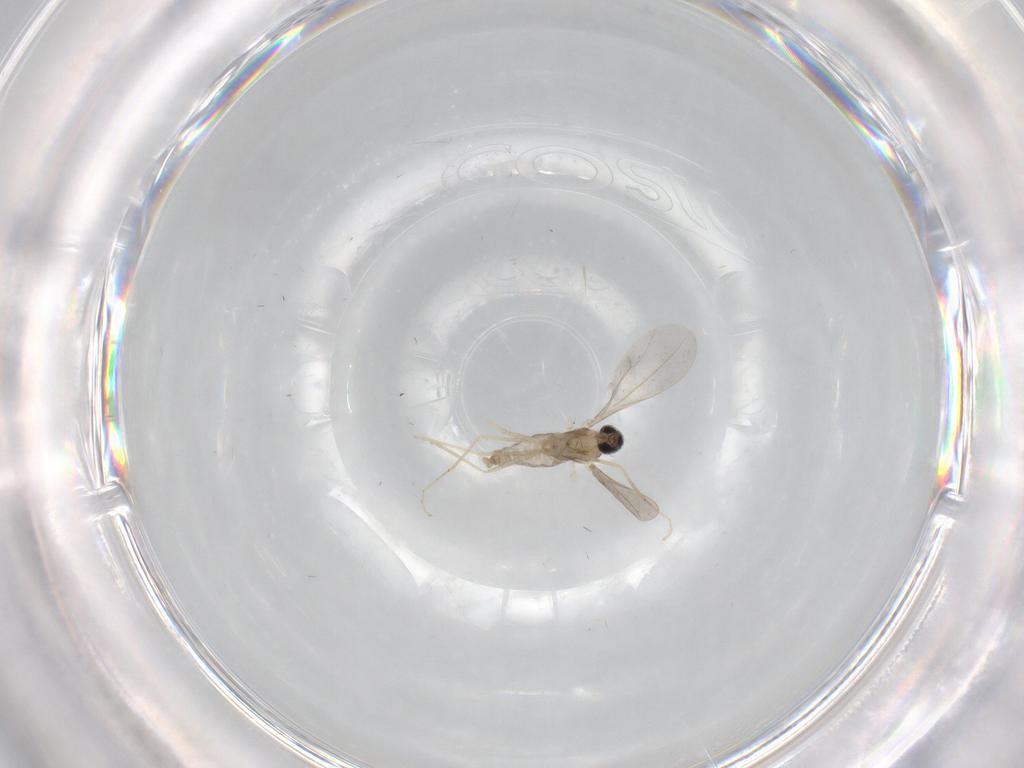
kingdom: Animalia
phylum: Arthropoda
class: Insecta
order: Diptera
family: Cecidomyiidae
